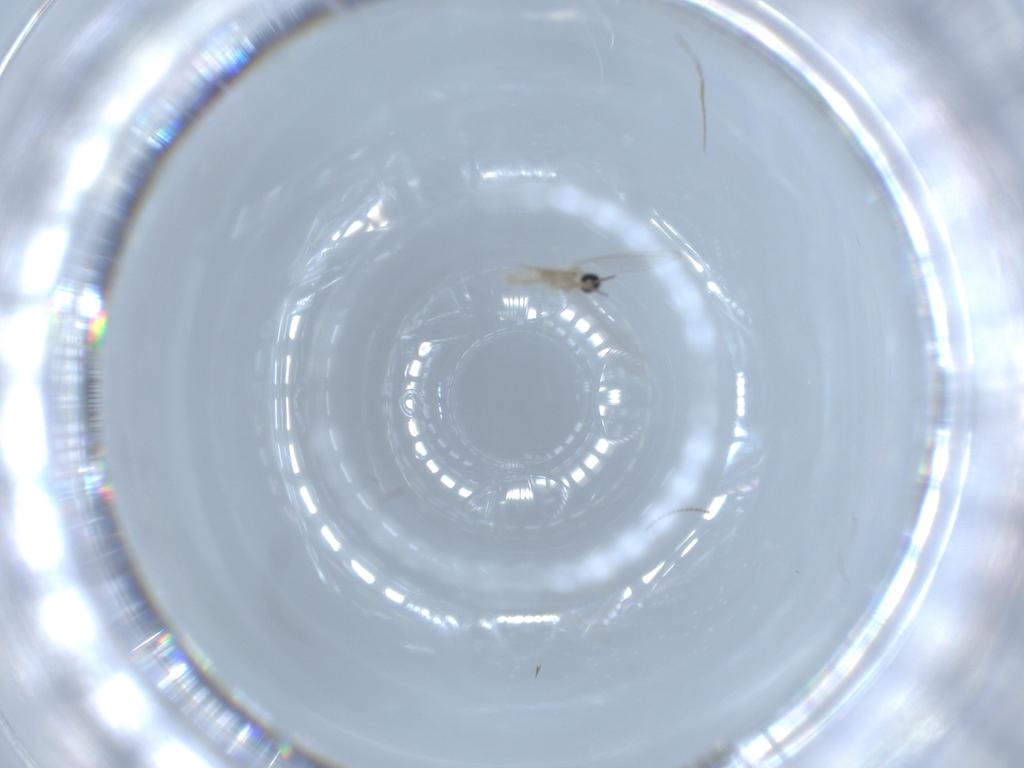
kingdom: Animalia
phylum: Arthropoda
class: Insecta
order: Diptera
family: Cecidomyiidae
